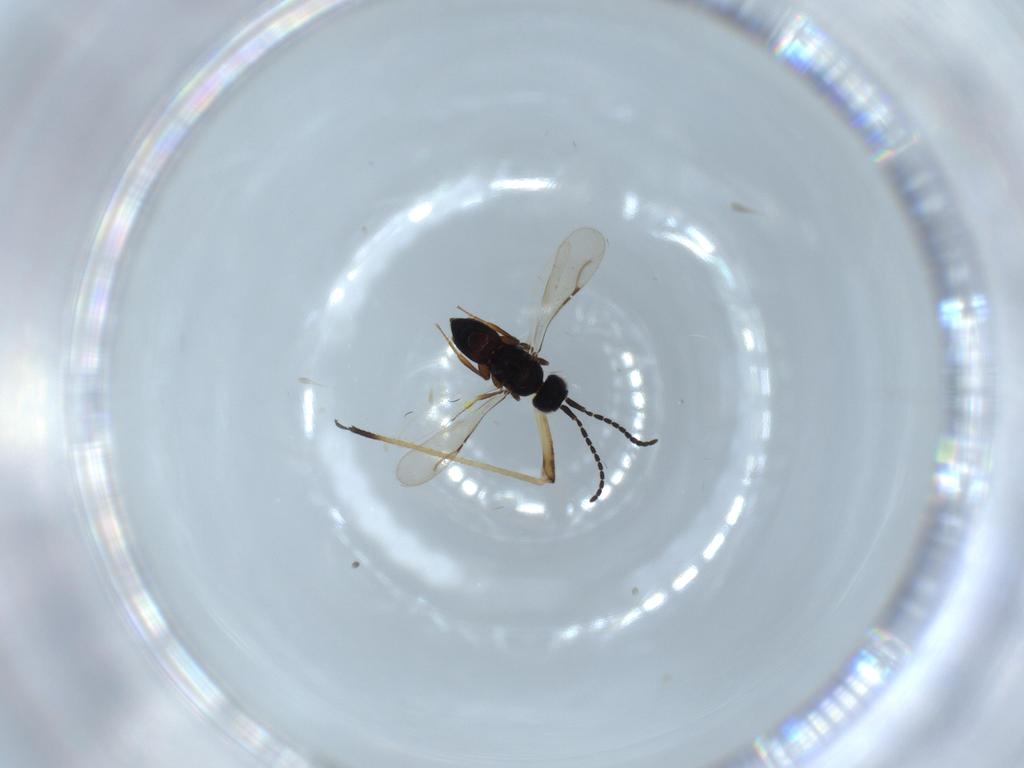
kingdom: Animalia
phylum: Arthropoda
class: Insecta
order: Hymenoptera
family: Ceraphronidae
